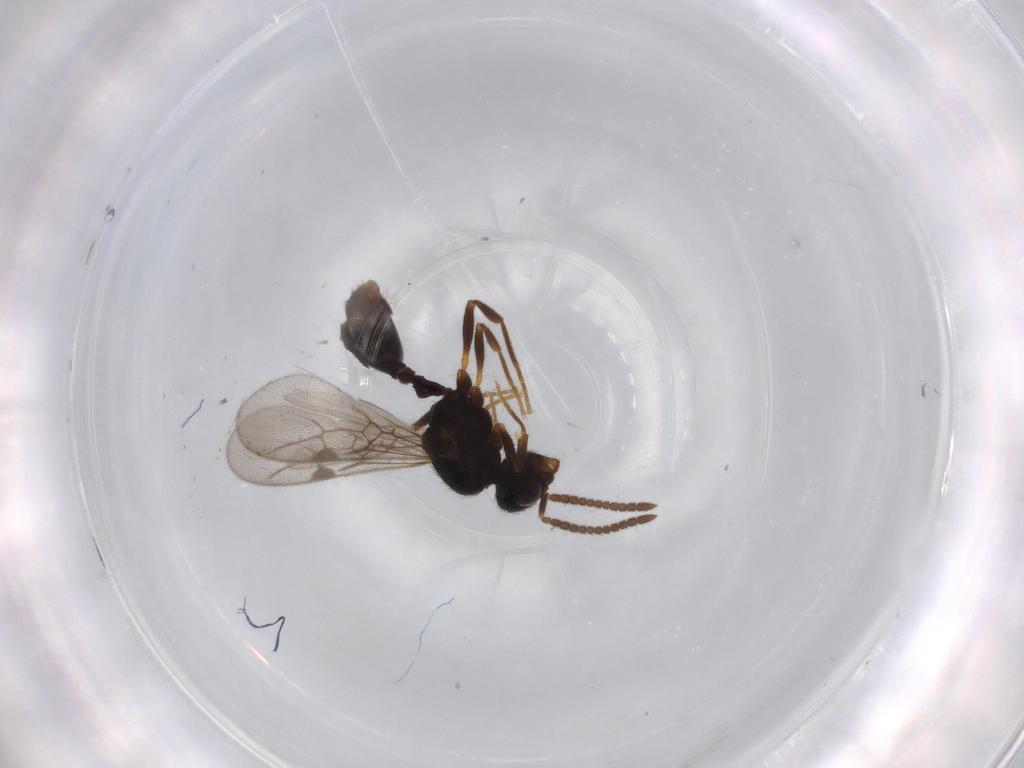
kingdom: Animalia
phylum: Arthropoda
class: Insecta
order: Hymenoptera
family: Formicidae
